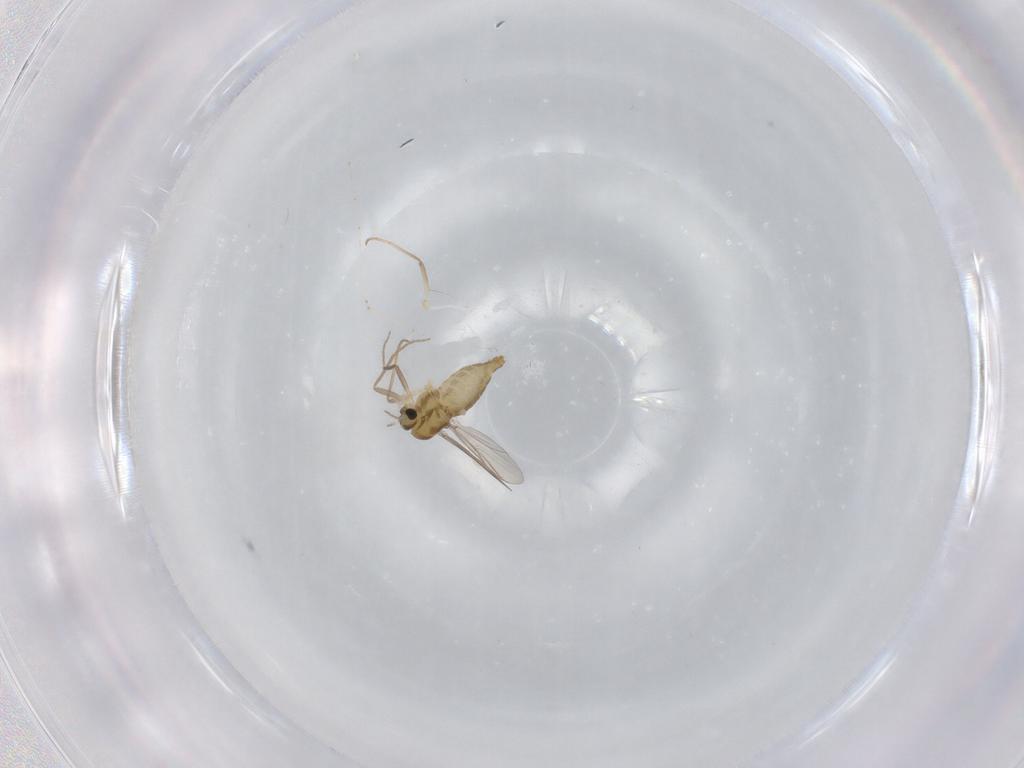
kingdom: Animalia
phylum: Arthropoda
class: Insecta
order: Diptera
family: Chironomidae
